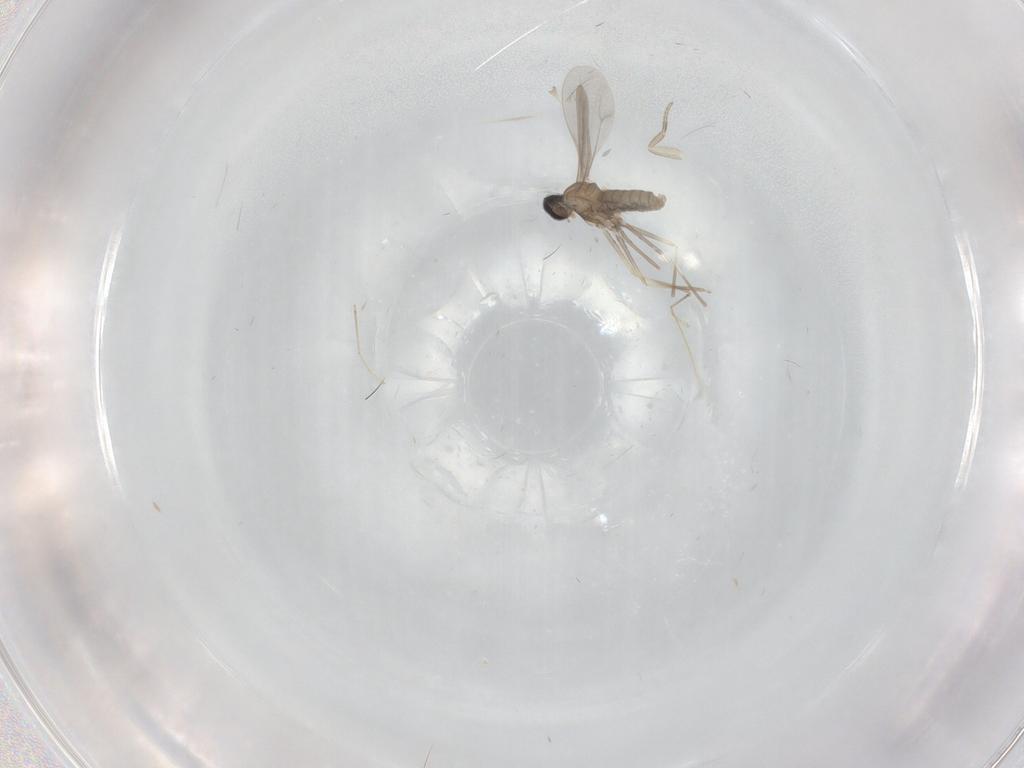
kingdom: Animalia
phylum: Arthropoda
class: Insecta
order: Diptera
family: Cecidomyiidae
